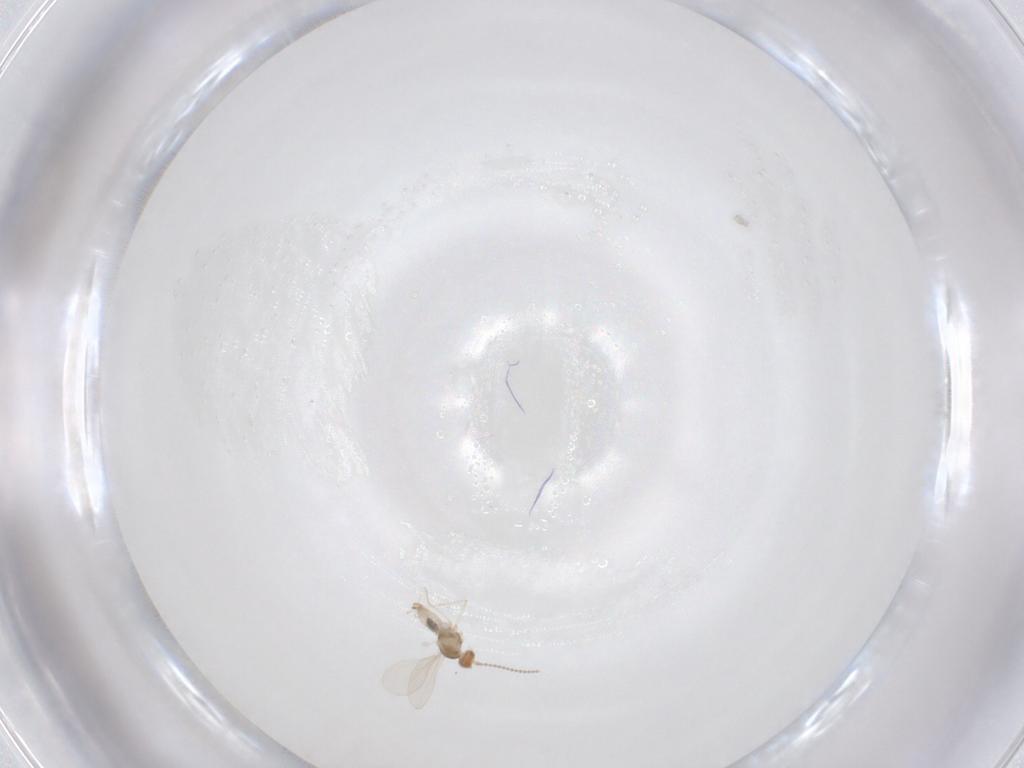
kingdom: Animalia
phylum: Arthropoda
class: Insecta
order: Diptera
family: Cecidomyiidae
